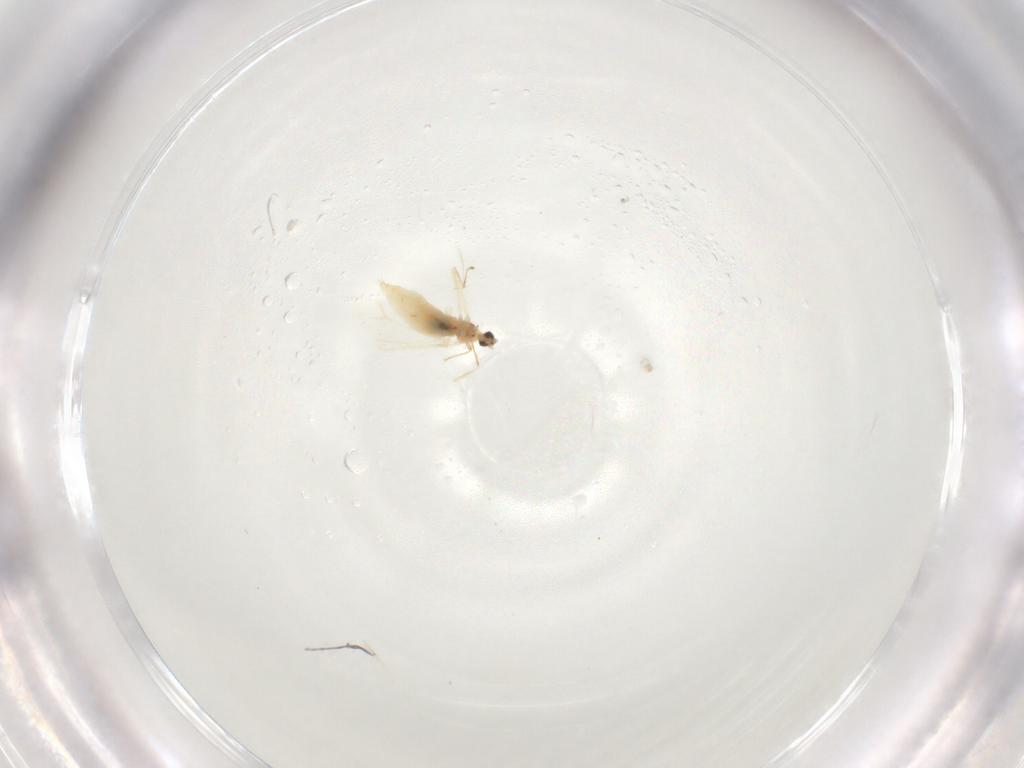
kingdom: Animalia
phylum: Arthropoda
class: Insecta
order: Diptera
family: Cecidomyiidae
